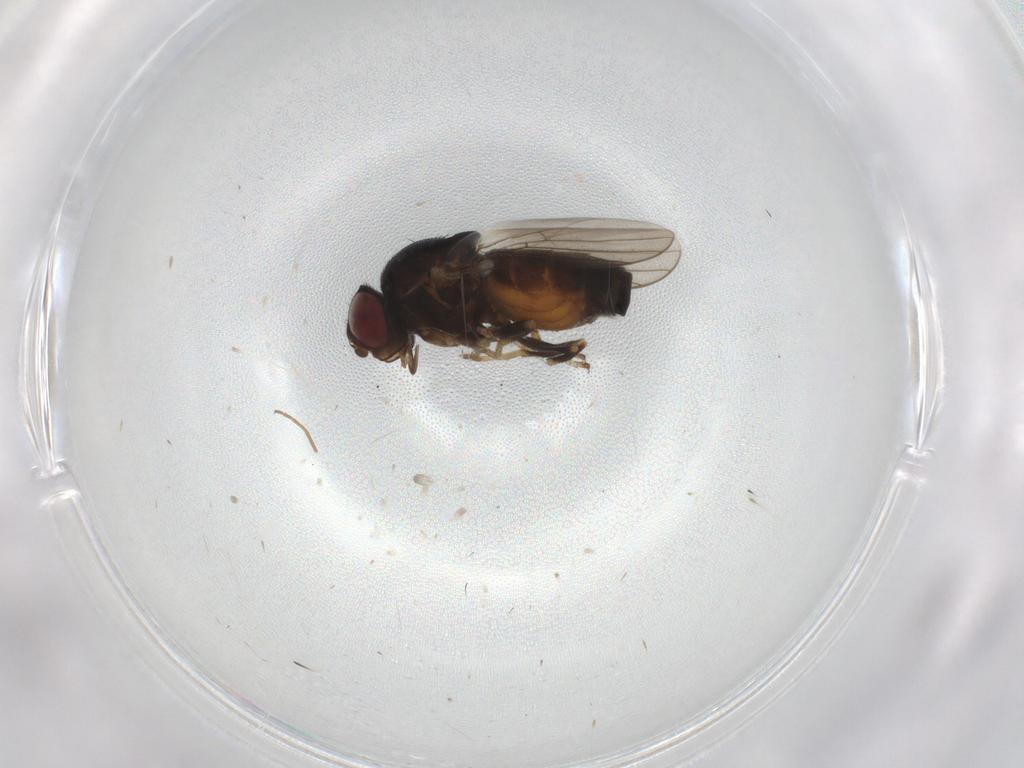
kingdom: Animalia
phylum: Arthropoda
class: Insecta
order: Diptera
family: Chloropidae
